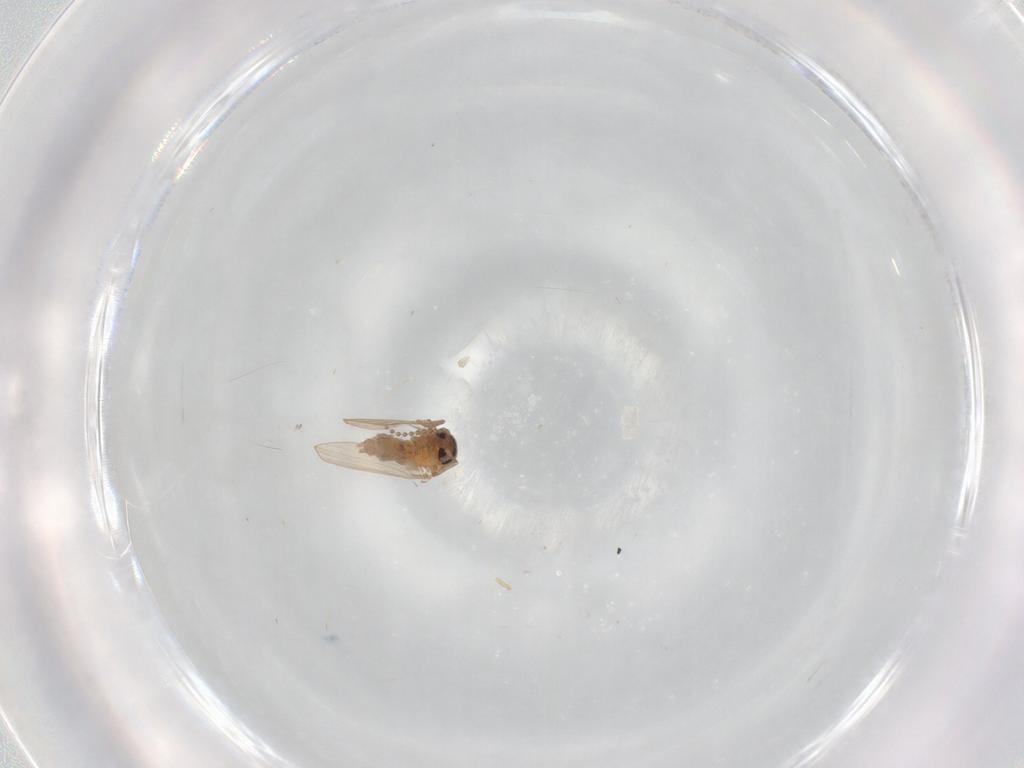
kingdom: Animalia
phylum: Arthropoda
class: Insecta
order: Diptera
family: Dolichopodidae
